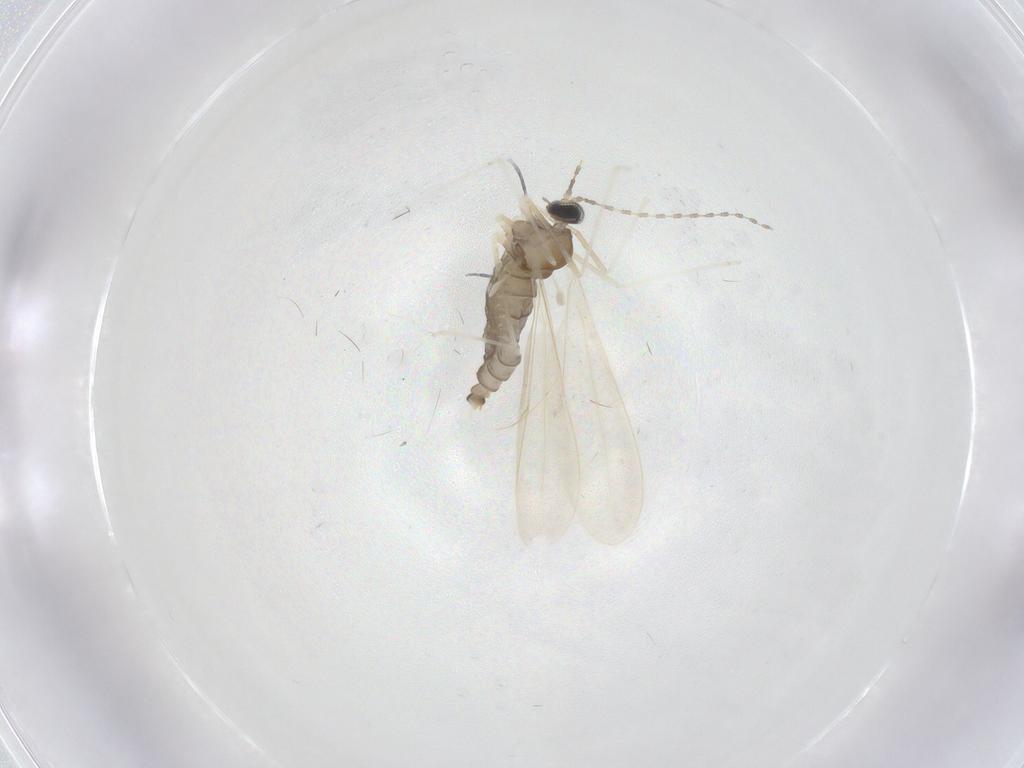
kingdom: Animalia
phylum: Arthropoda
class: Insecta
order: Diptera
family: Cecidomyiidae
